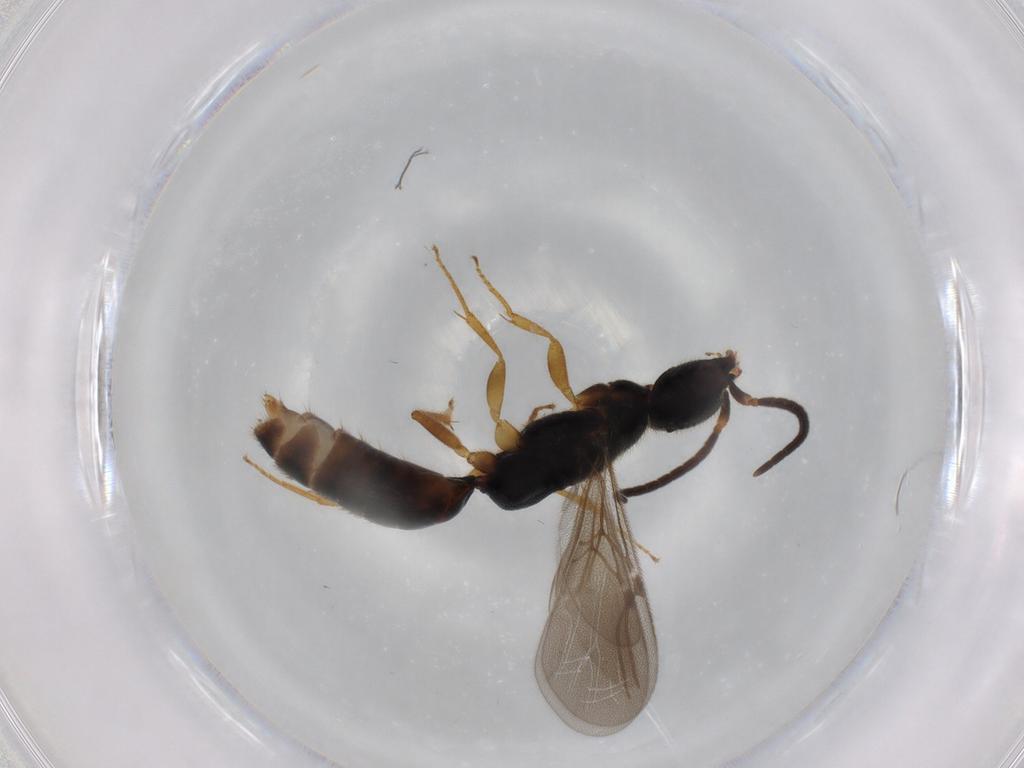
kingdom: Animalia
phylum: Arthropoda
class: Insecta
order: Hymenoptera
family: Bethylidae
